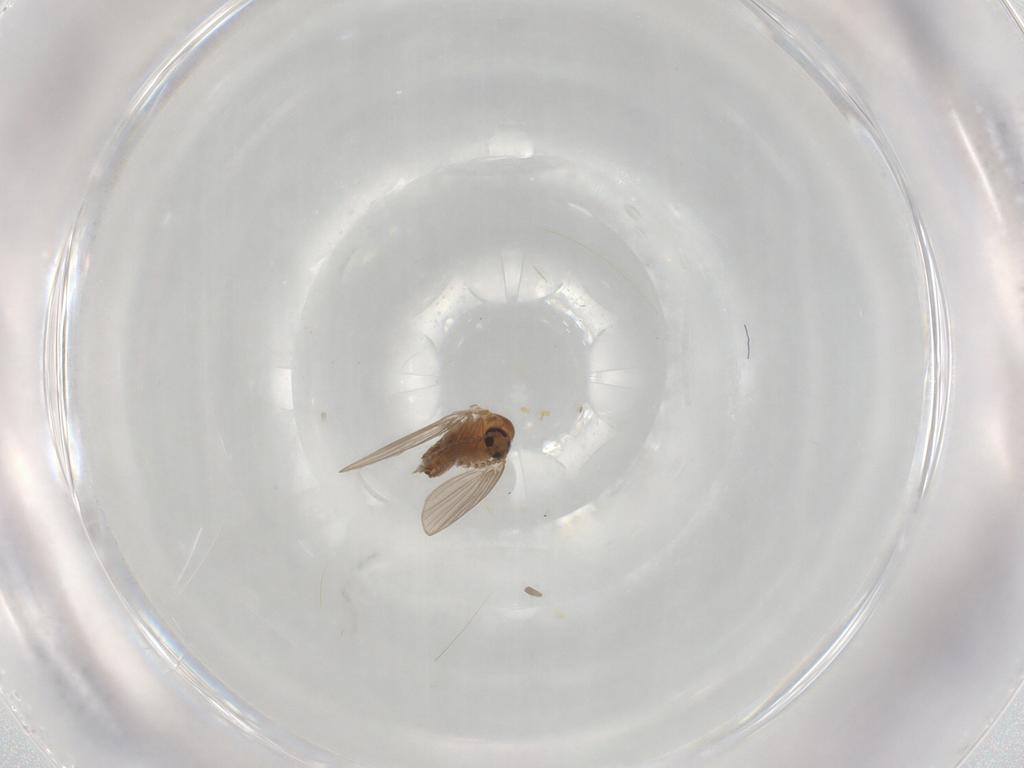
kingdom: Animalia
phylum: Arthropoda
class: Insecta
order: Diptera
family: Psychodidae
